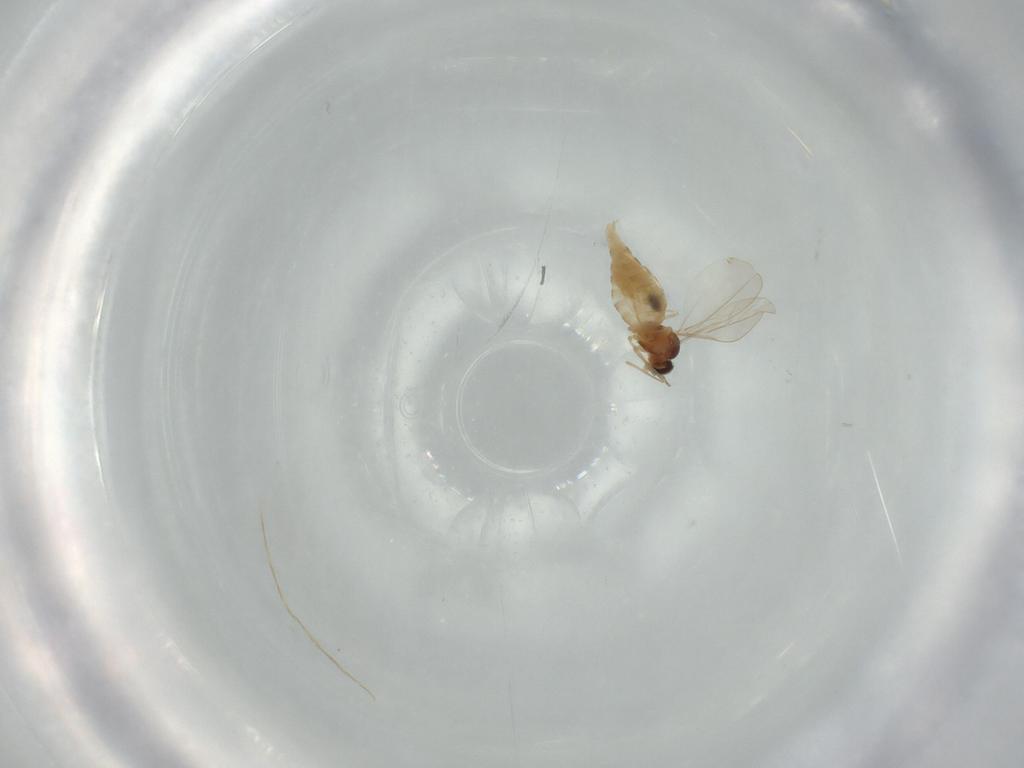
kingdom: Animalia
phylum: Arthropoda
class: Insecta
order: Diptera
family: Cecidomyiidae
